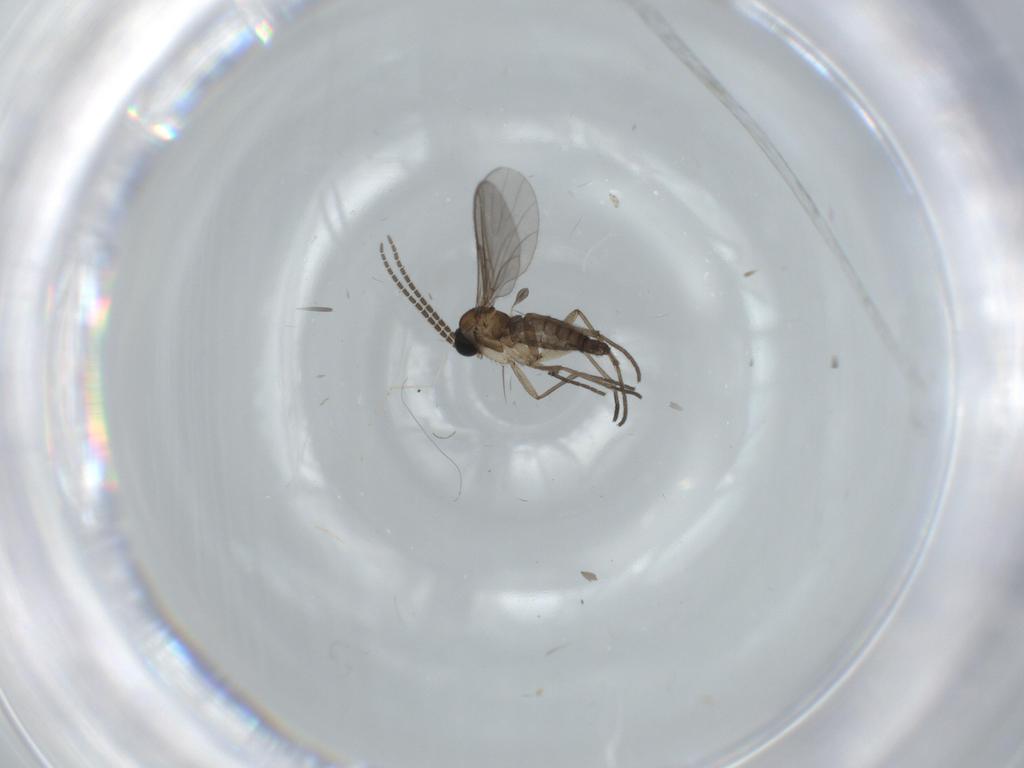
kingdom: Animalia
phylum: Arthropoda
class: Insecta
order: Diptera
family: Sciaridae
